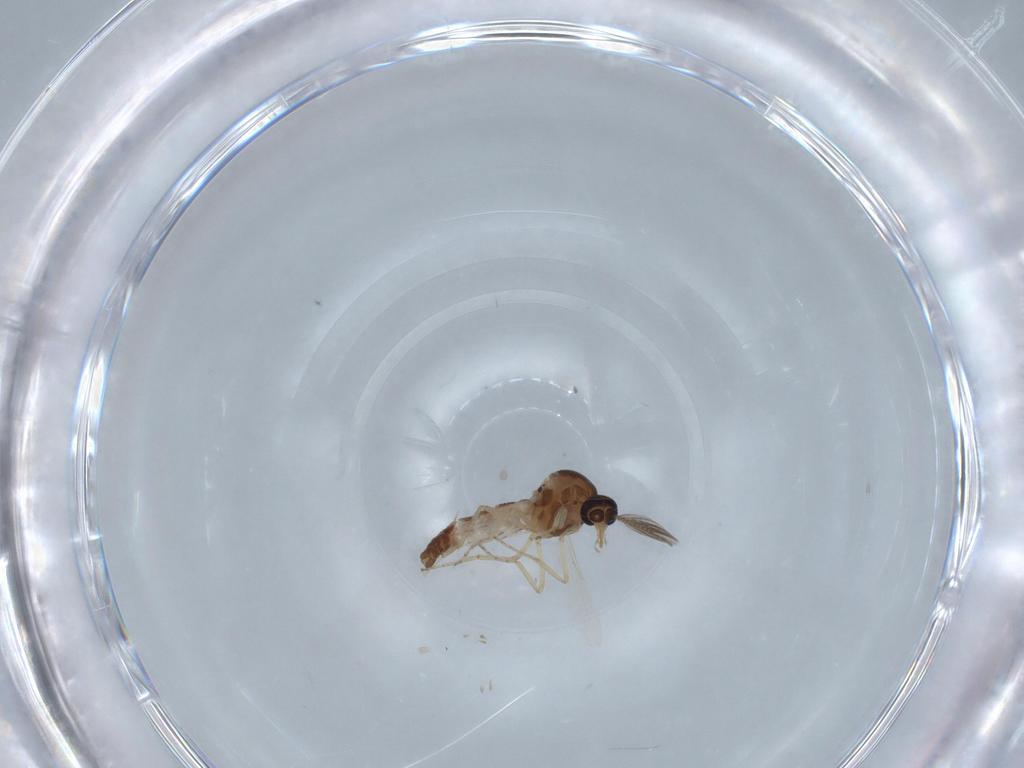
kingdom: Animalia
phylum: Arthropoda
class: Insecta
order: Diptera
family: Ceratopogonidae
